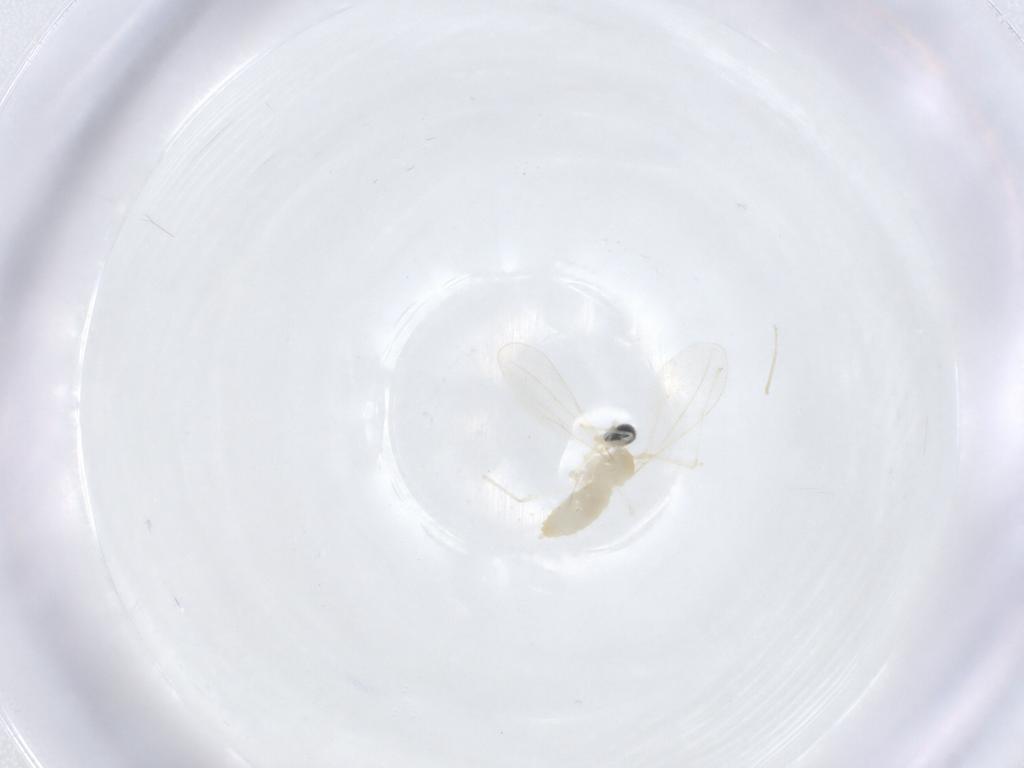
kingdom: Animalia
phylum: Arthropoda
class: Insecta
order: Diptera
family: Cecidomyiidae
